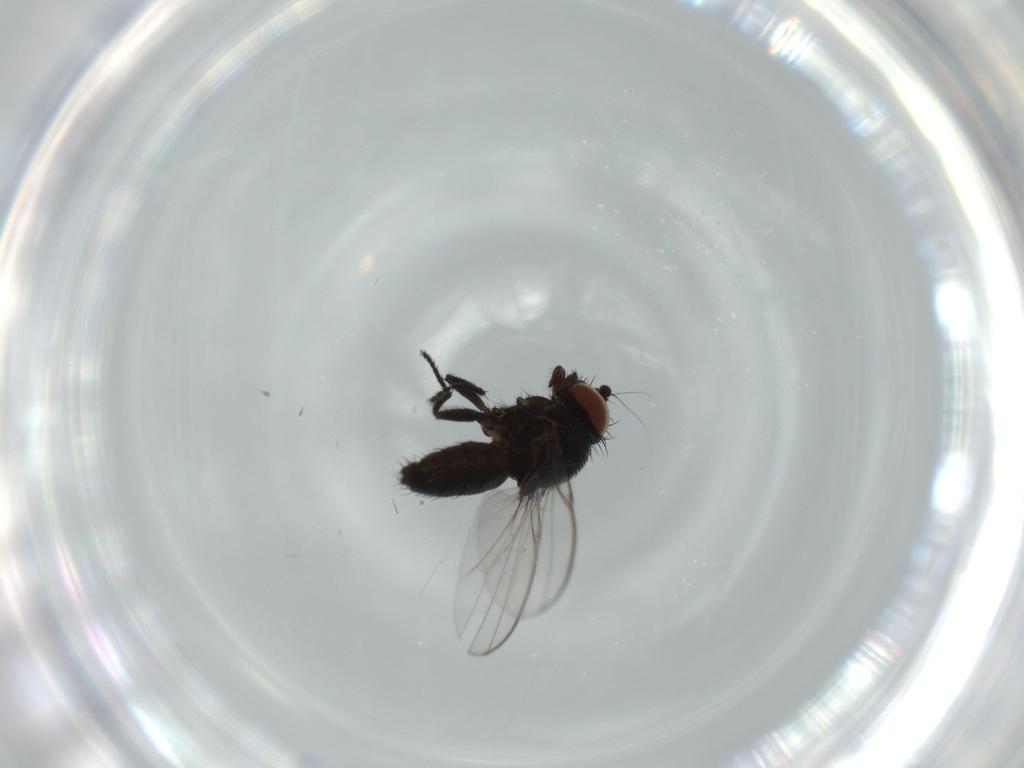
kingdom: Animalia
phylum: Arthropoda
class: Insecta
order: Diptera
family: Milichiidae
